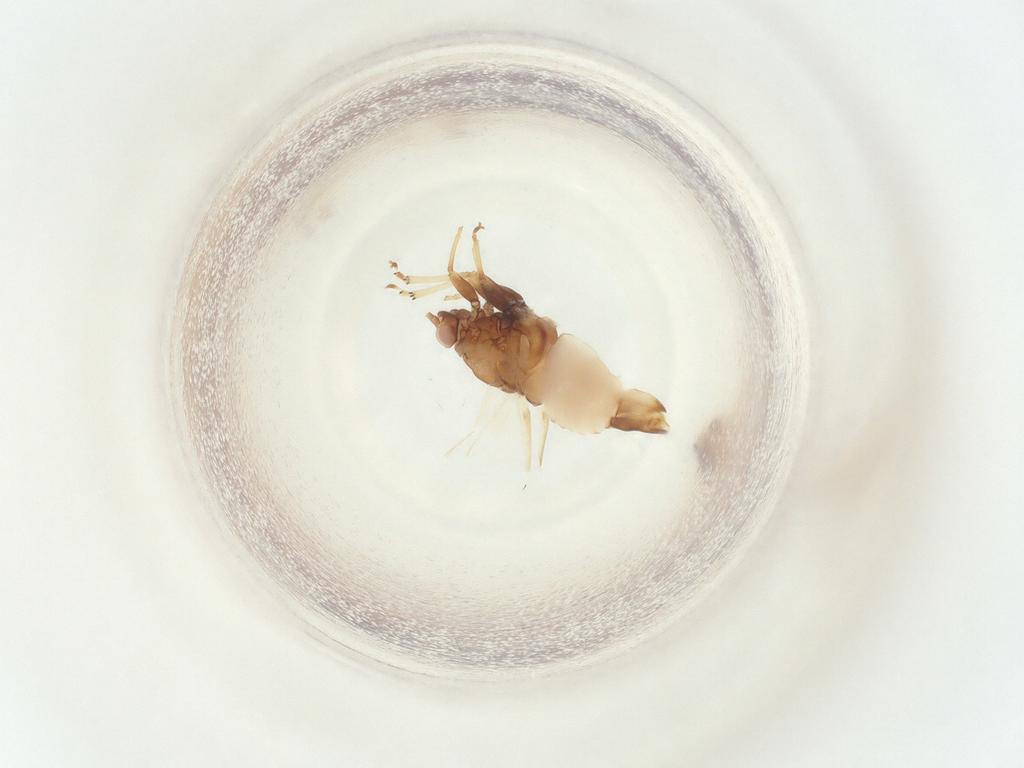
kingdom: Animalia
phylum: Arthropoda
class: Insecta
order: Hemiptera
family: Psyllidae
